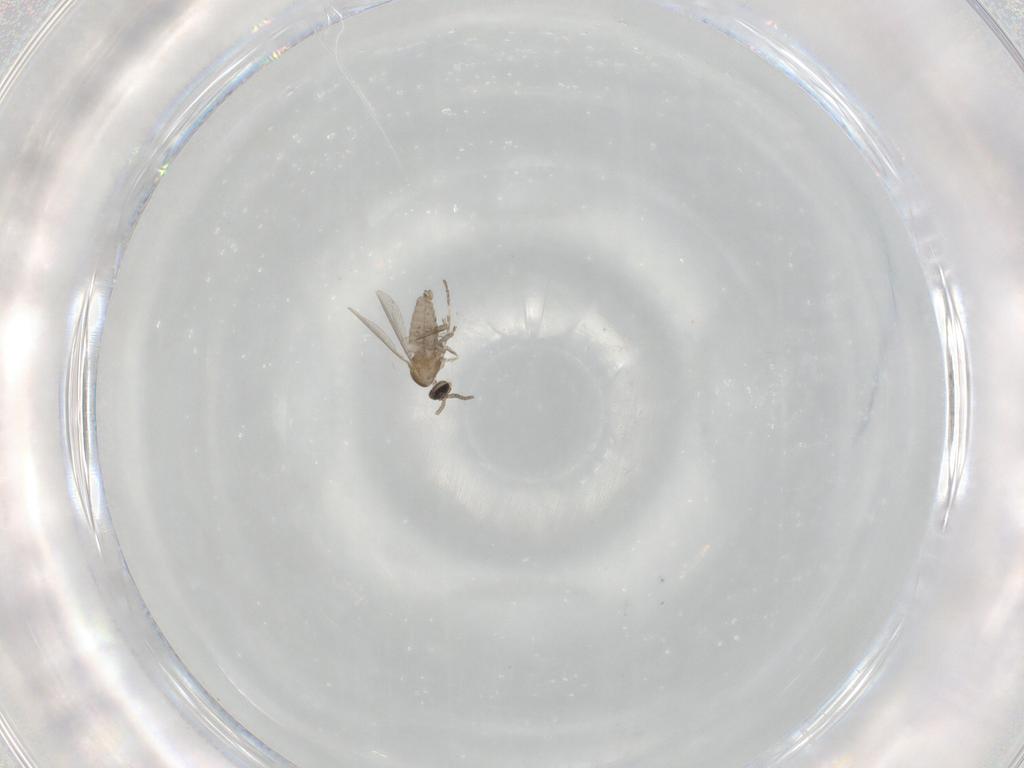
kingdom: Animalia
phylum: Arthropoda
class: Insecta
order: Diptera
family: Cecidomyiidae
